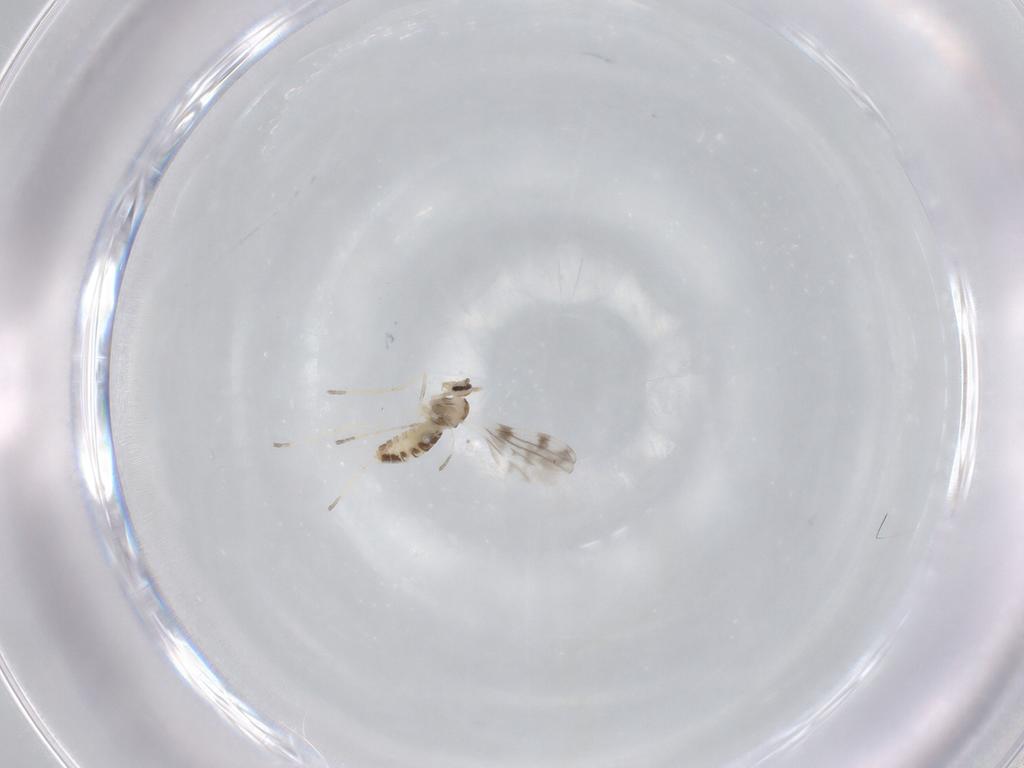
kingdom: Animalia
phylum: Arthropoda
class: Insecta
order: Diptera
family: Cecidomyiidae
